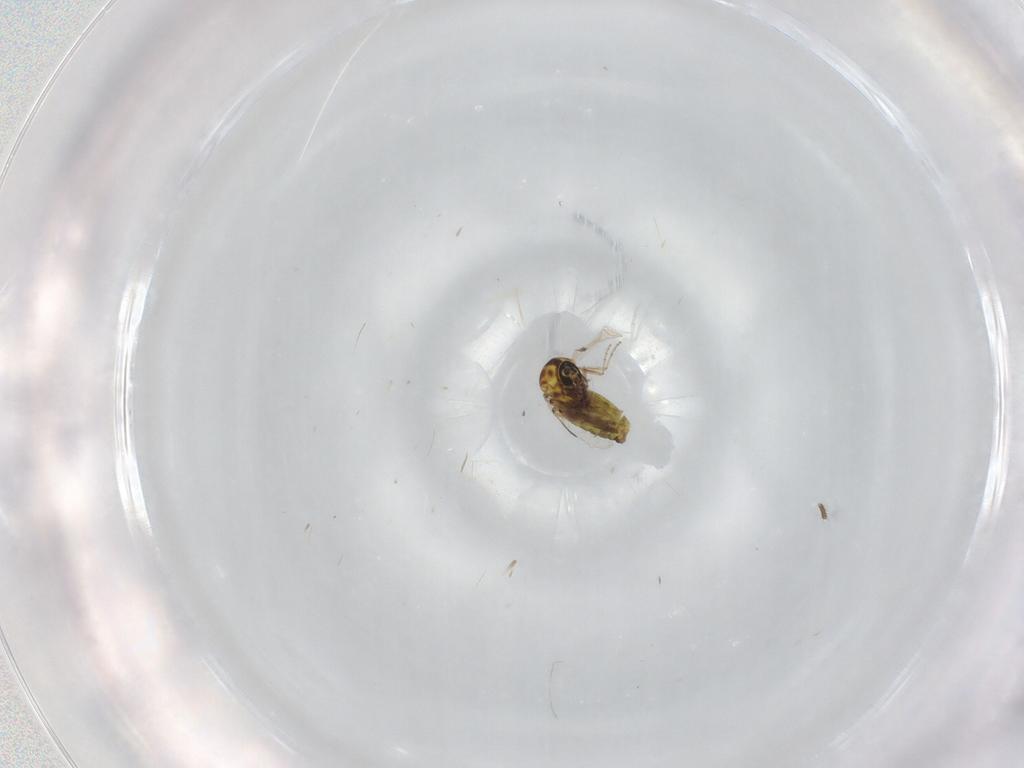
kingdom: Animalia
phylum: Arthropoda
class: Insecta
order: Diptera
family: Ceratopogonidae
